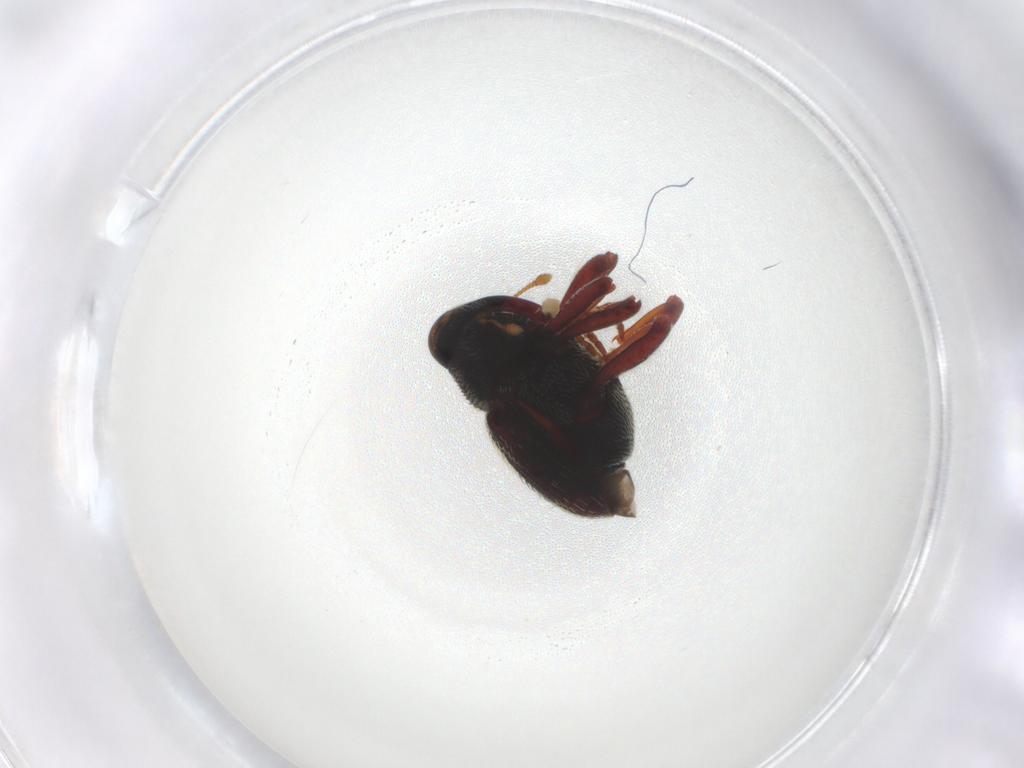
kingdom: Animalia
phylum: Arthropoda
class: Insecta
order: Coleoptera
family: Curculionidae
